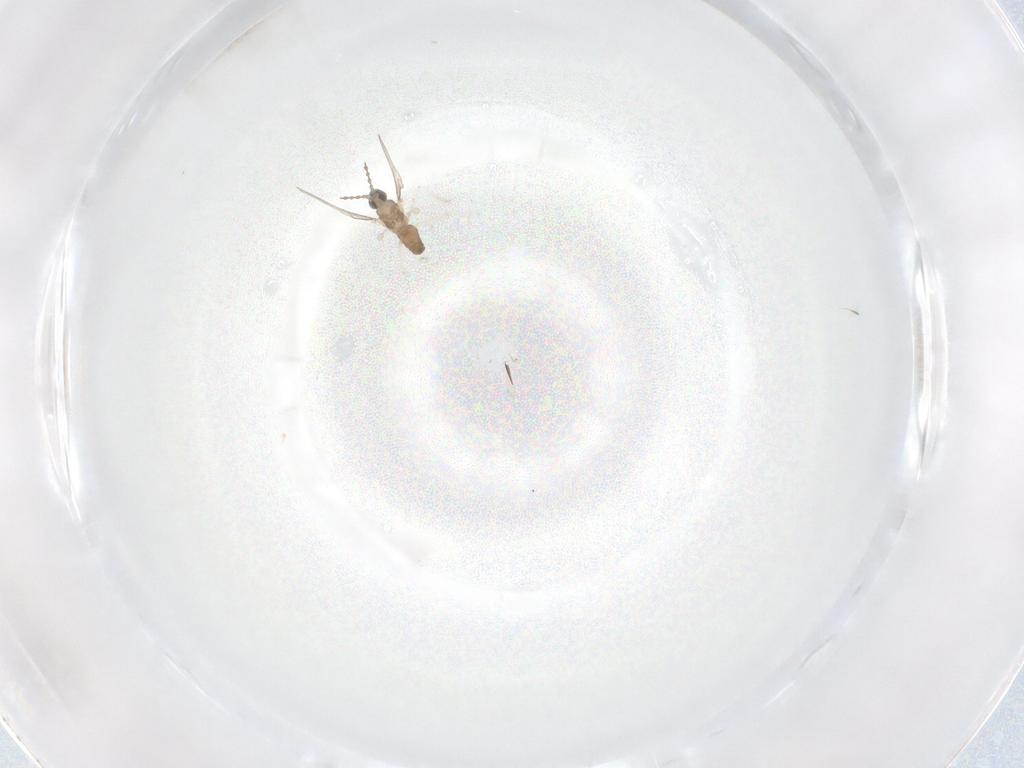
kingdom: Animalia
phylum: Arthropoda
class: Insecta
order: Diptera
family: Cecidomyiidae
